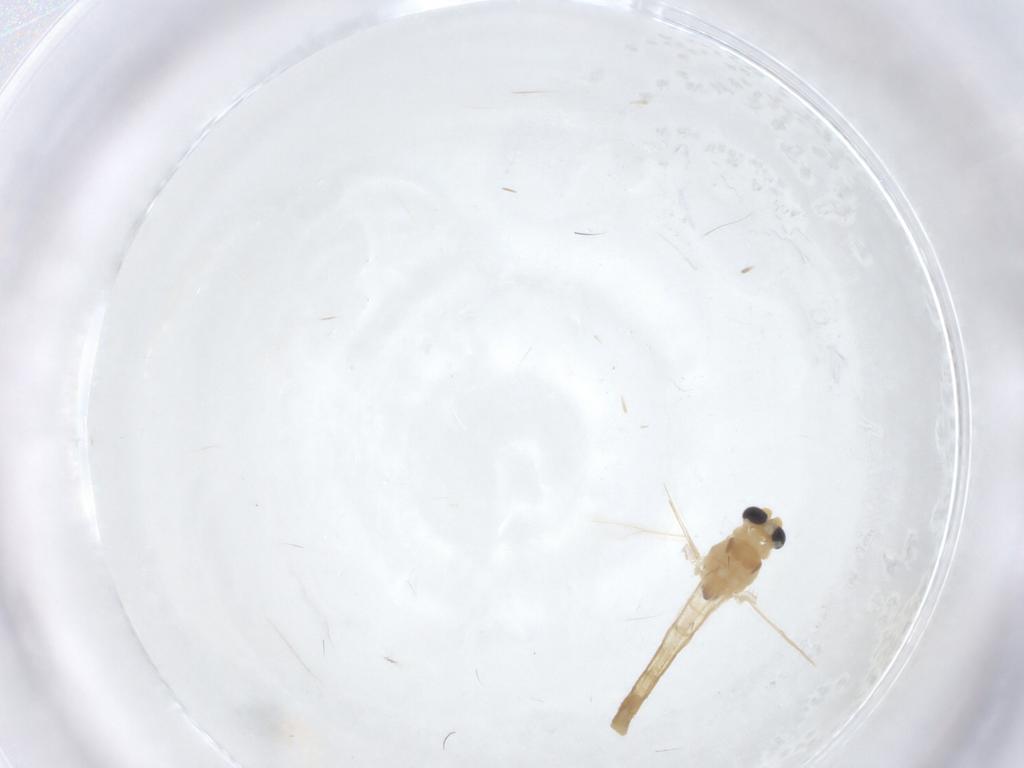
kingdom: Animalia
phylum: Arthropoda
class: Insecta
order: Diptera
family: Chironomidae
